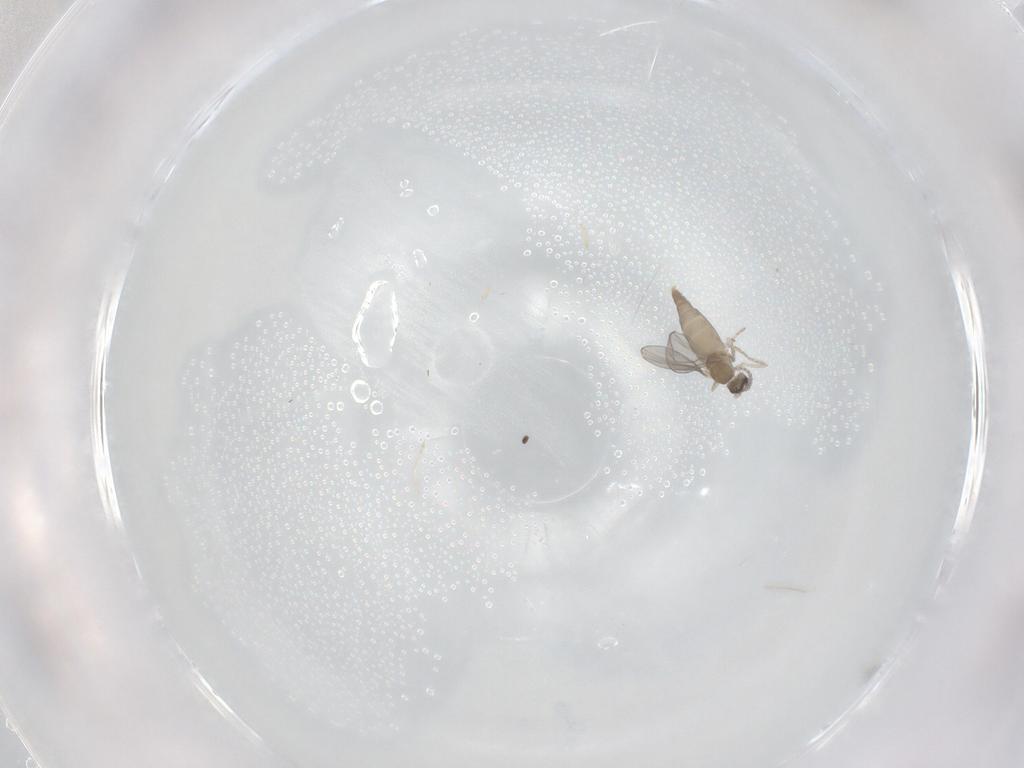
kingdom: Animalia
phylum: Arthropoda
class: Insecta
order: Diptera
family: Cecidomyiidae
